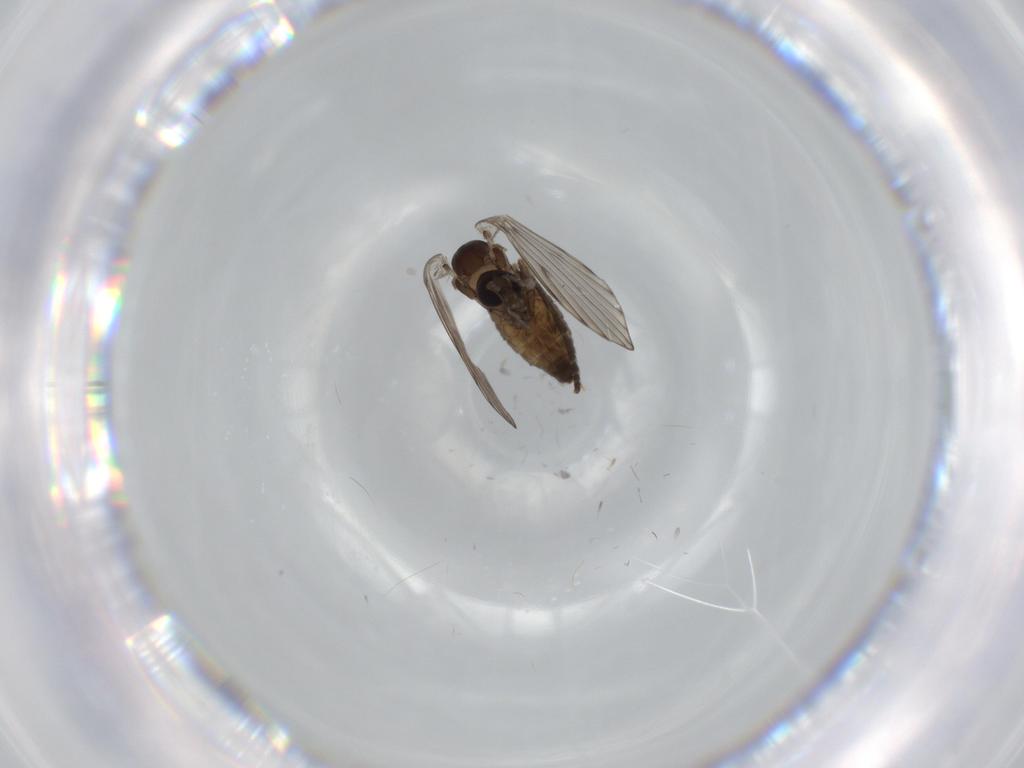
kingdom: Animalia
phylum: Arthropoda
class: Insecta
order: Diptera
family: Psychodidae
